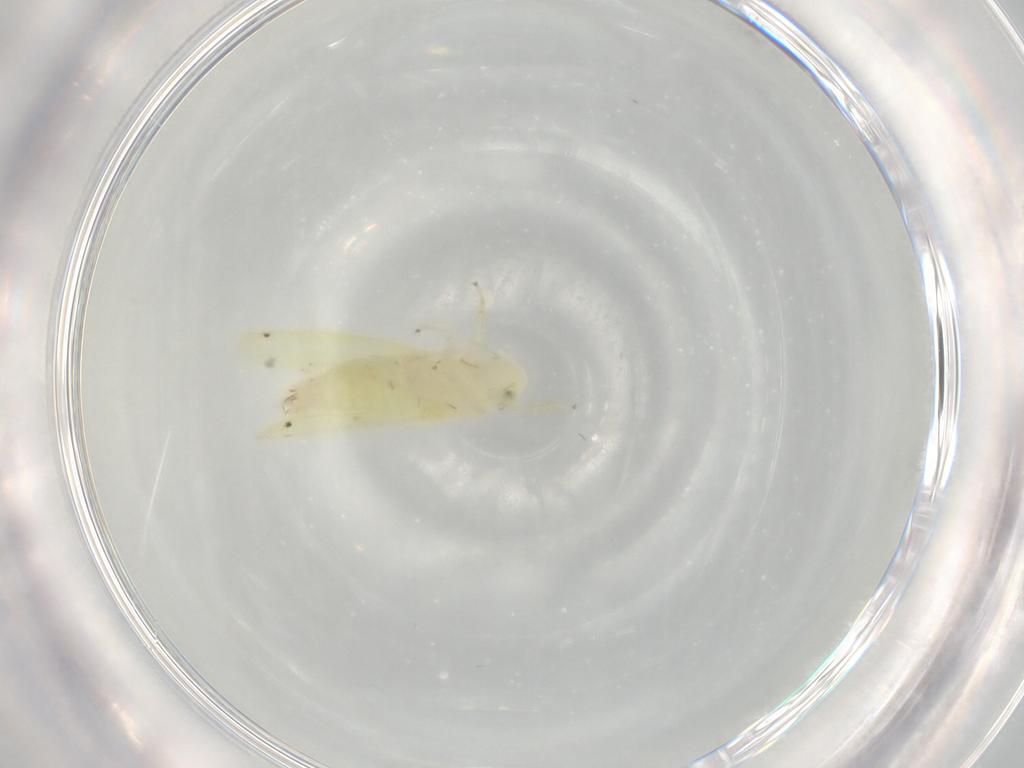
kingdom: Animalia
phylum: Arthropoda
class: Insecta
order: Hemiptera
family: Cicadellidae
